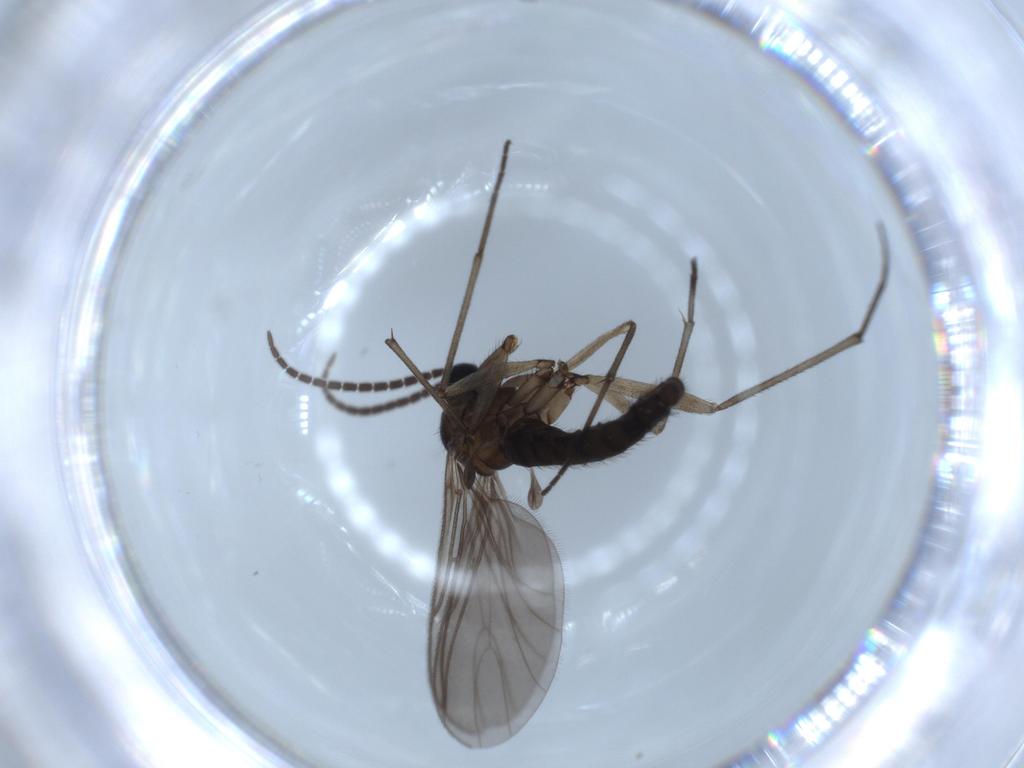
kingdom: Animalia
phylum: Arthropoda
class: Insecta
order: Diptera
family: Sciaridae
